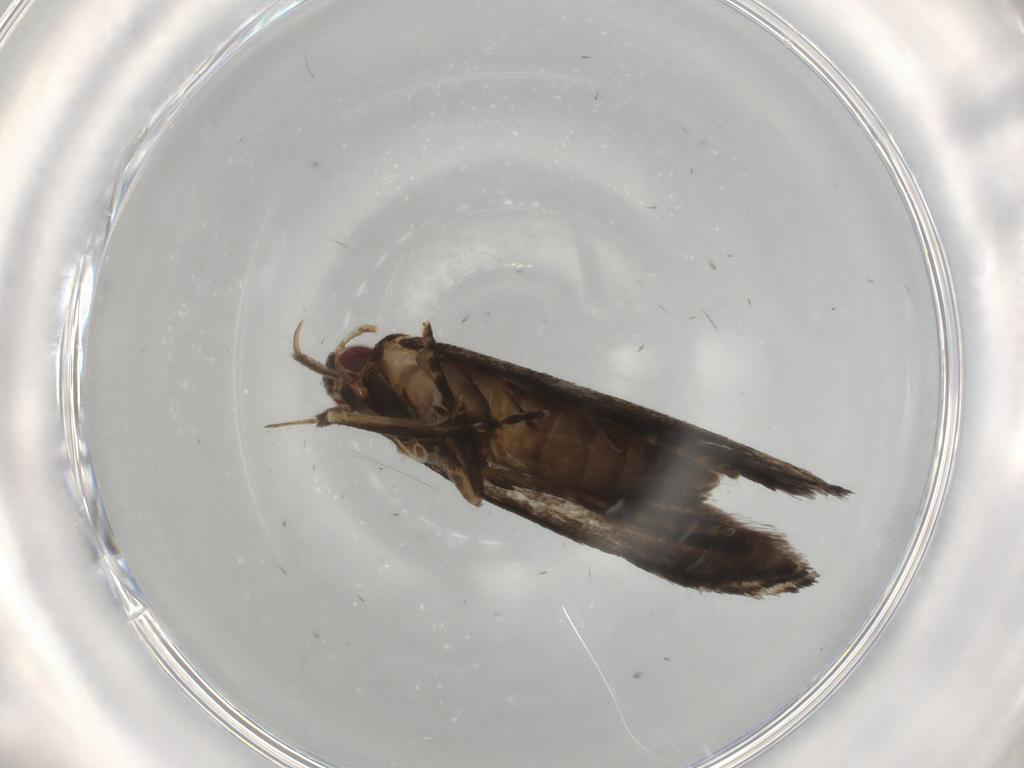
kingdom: Animalia
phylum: Arthropoda
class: Insecta
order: Lepidoptera
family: Gelechiidae
